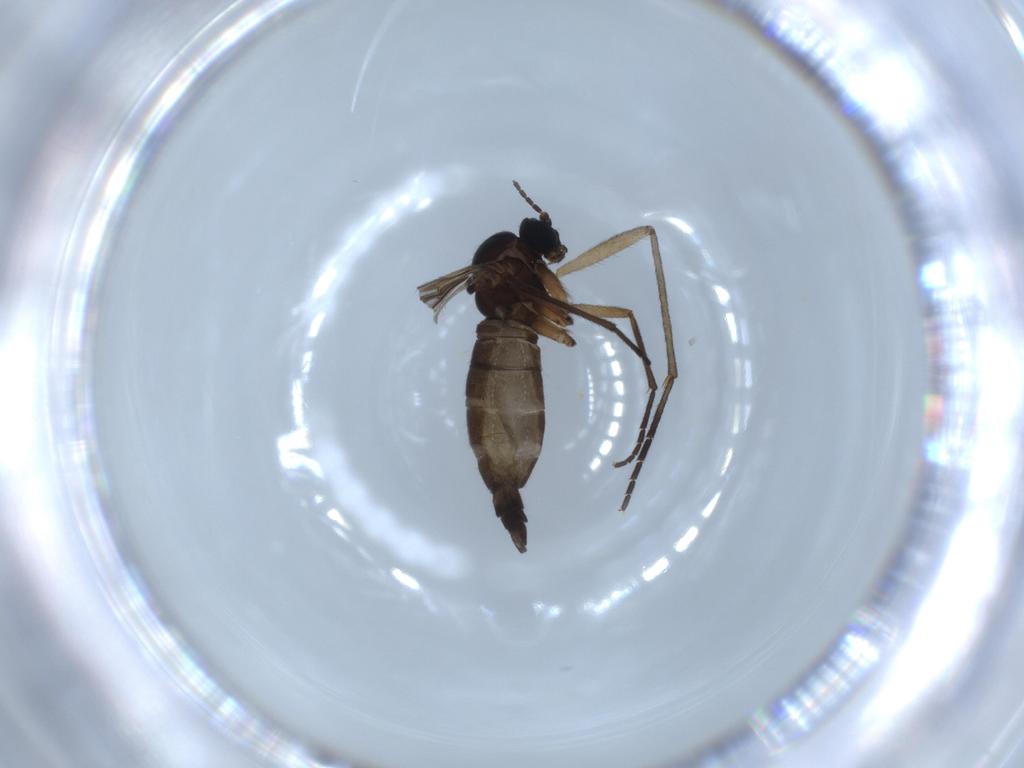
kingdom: Animalia
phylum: Arthropoda
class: Insecta
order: Diptera
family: Sciaridae
